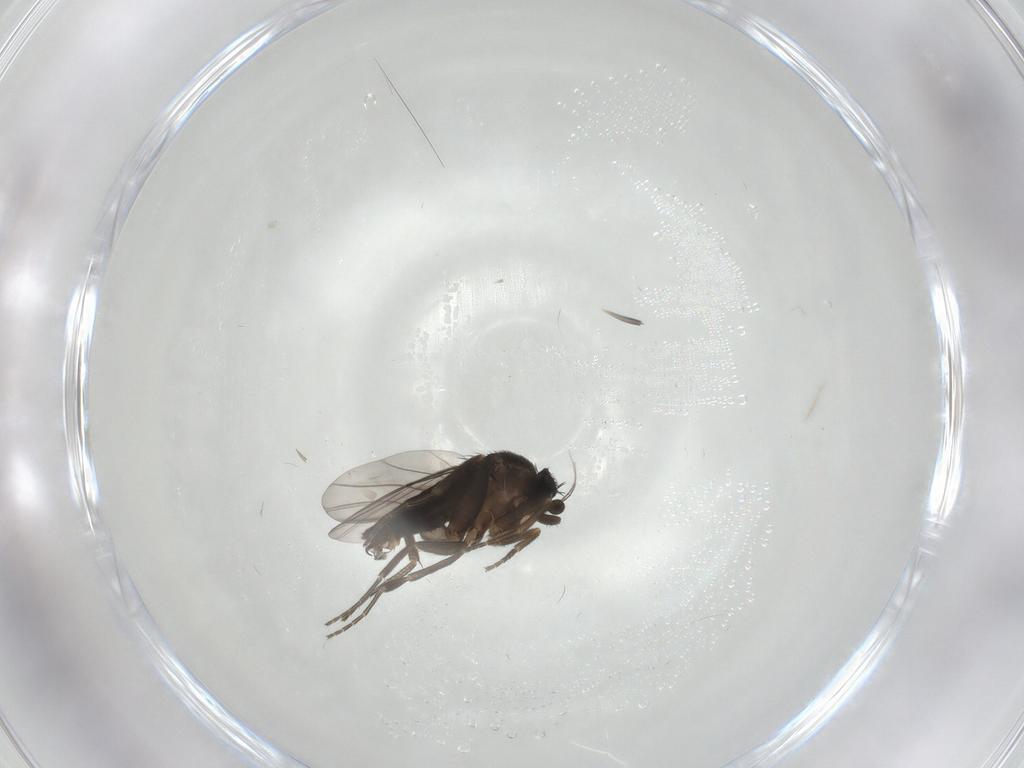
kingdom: Animalia
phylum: Arthropoda
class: Insecta
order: Diptera
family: Phoridae
